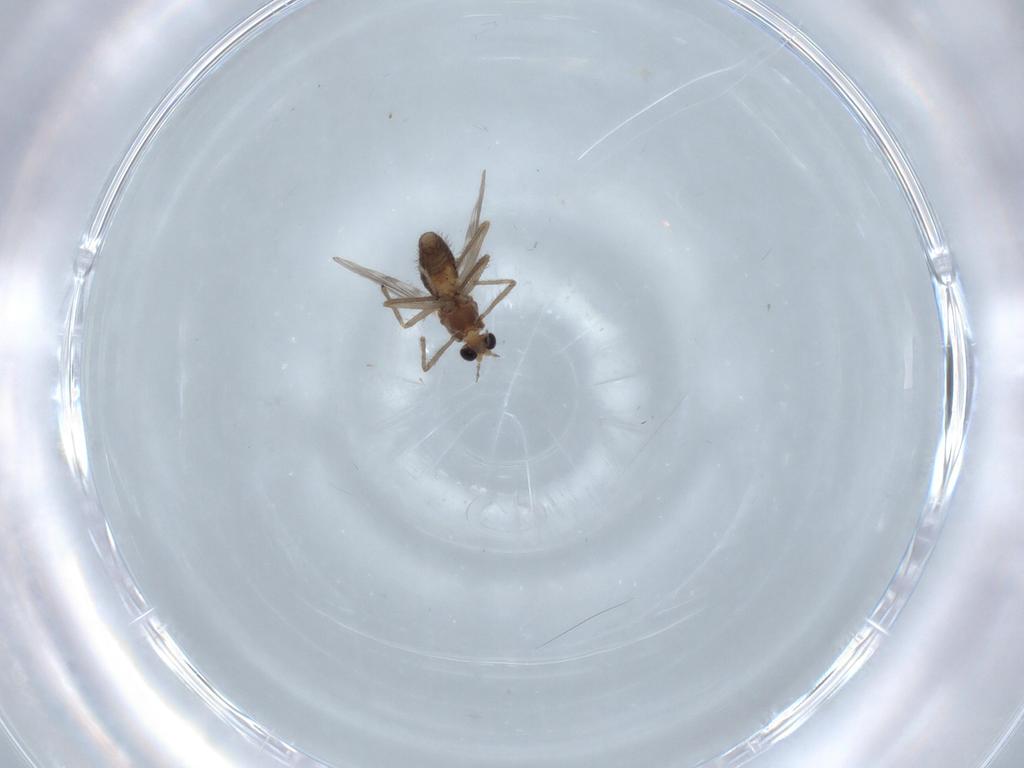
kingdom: Animalia
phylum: Arthropoda
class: Insecta
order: Diptera
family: Chironomidae
